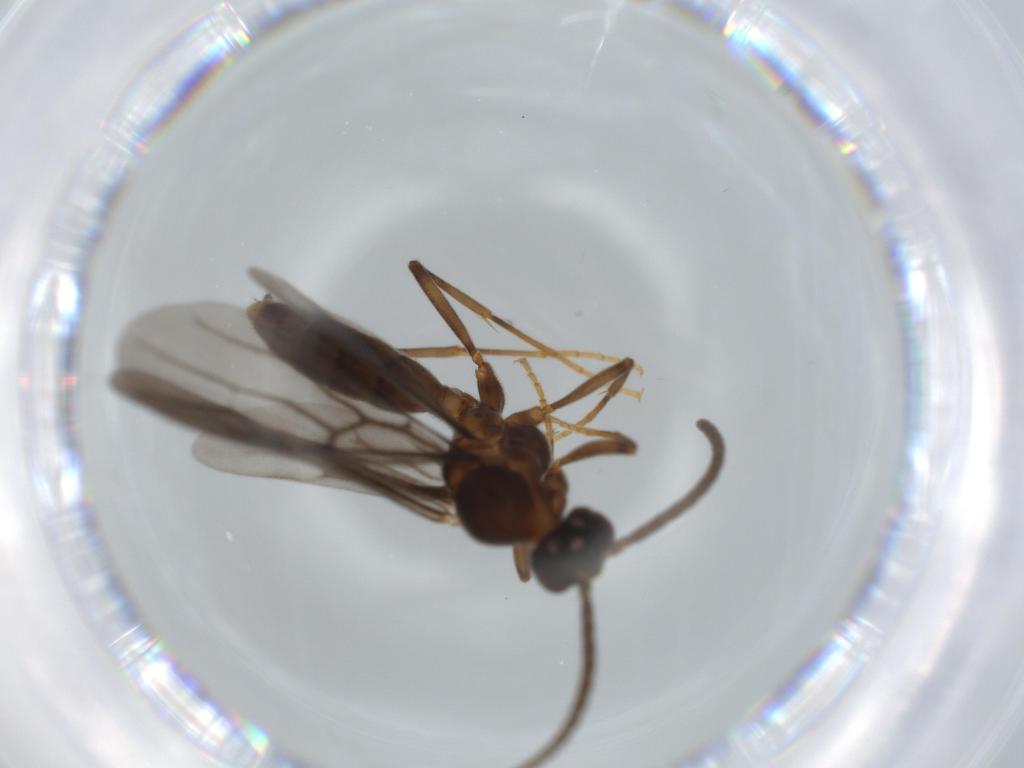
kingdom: Animalia
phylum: Arthropoda
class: Insecta
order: Hymenoptera
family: Formicidae
